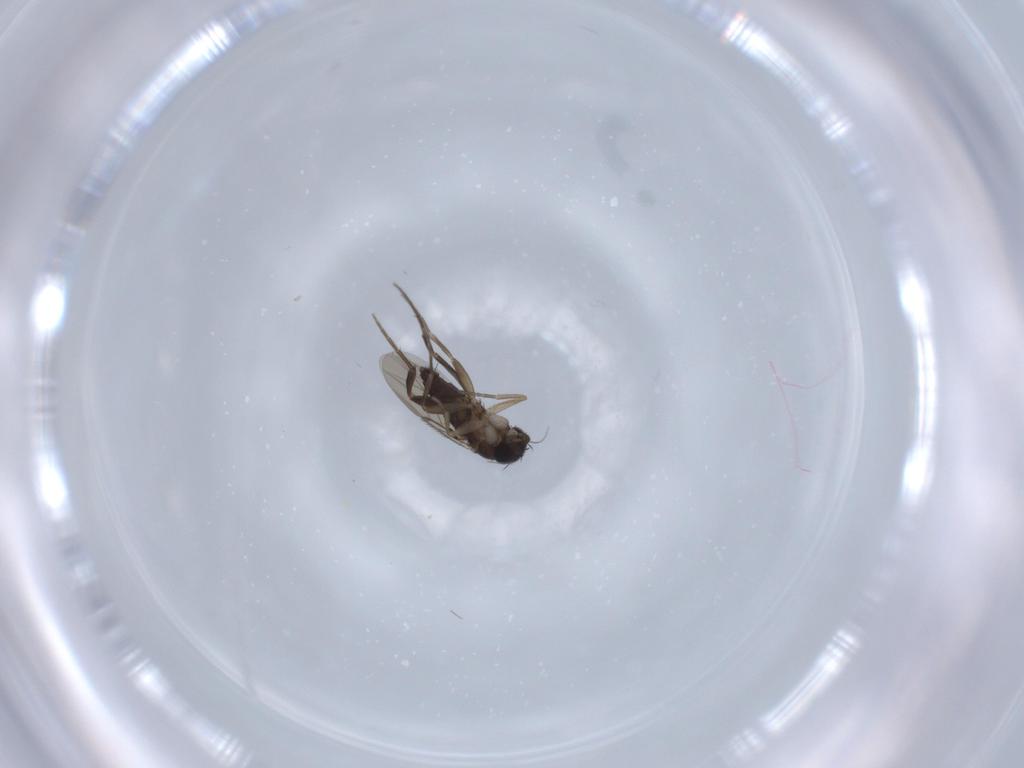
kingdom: Animalia
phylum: Arthropoda
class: Insecta
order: Diptera
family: Phoridae
